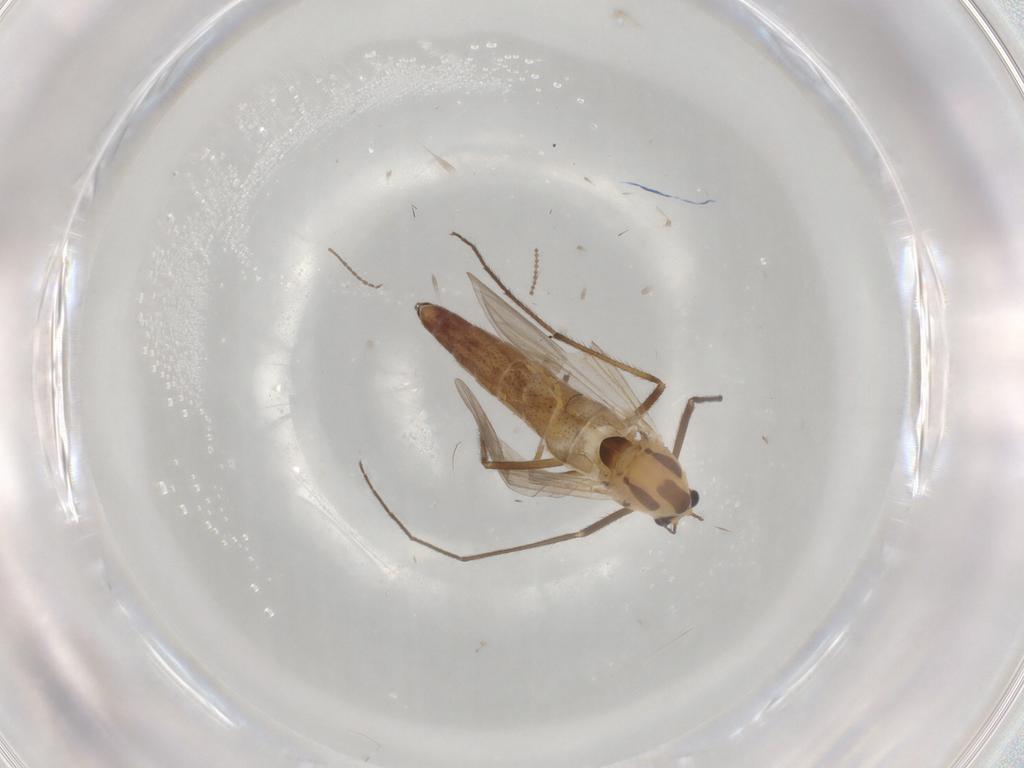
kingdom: Animalia
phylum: Arthropoda
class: Insecta
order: Diptera
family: Chironomidae
